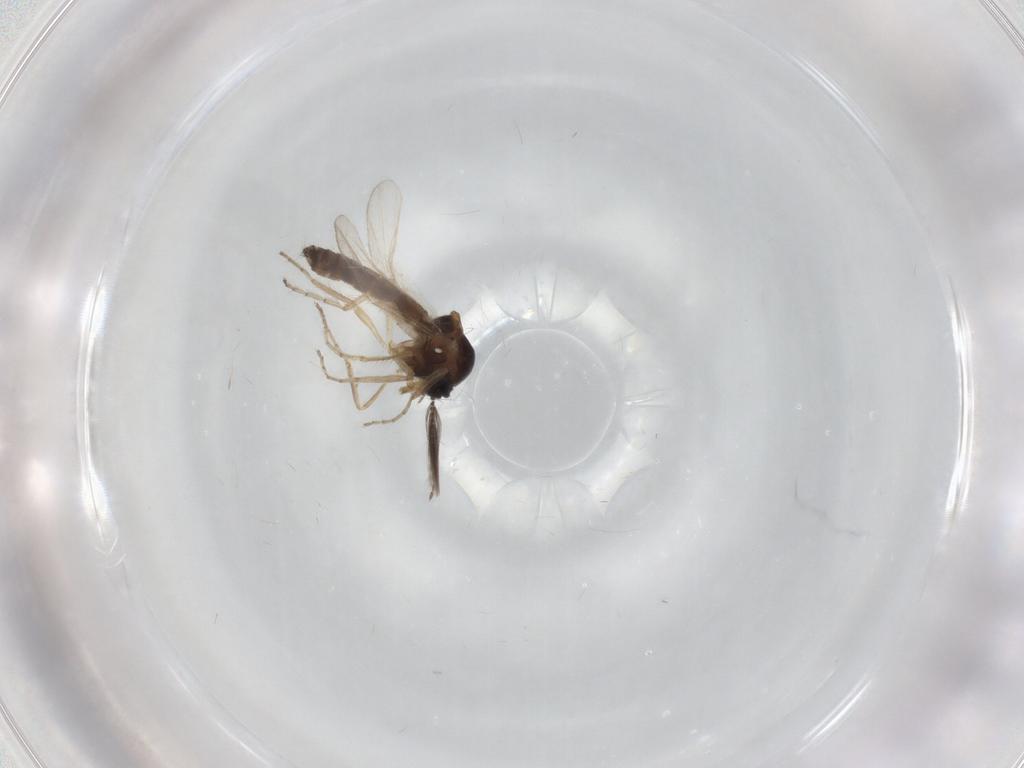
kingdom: Animalia
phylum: Arthropoda
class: Insecta
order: Diptera
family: Ceratopogonidae
